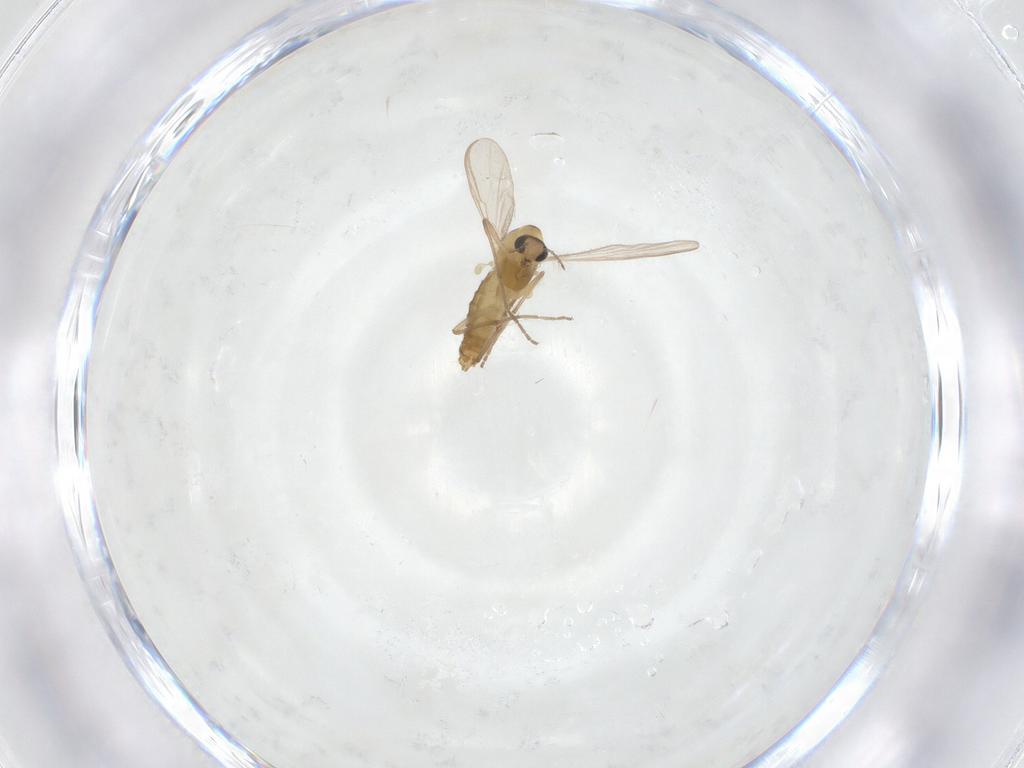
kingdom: Animalia
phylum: Arthropoda
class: Insecta
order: Diptera
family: Chironomidae
